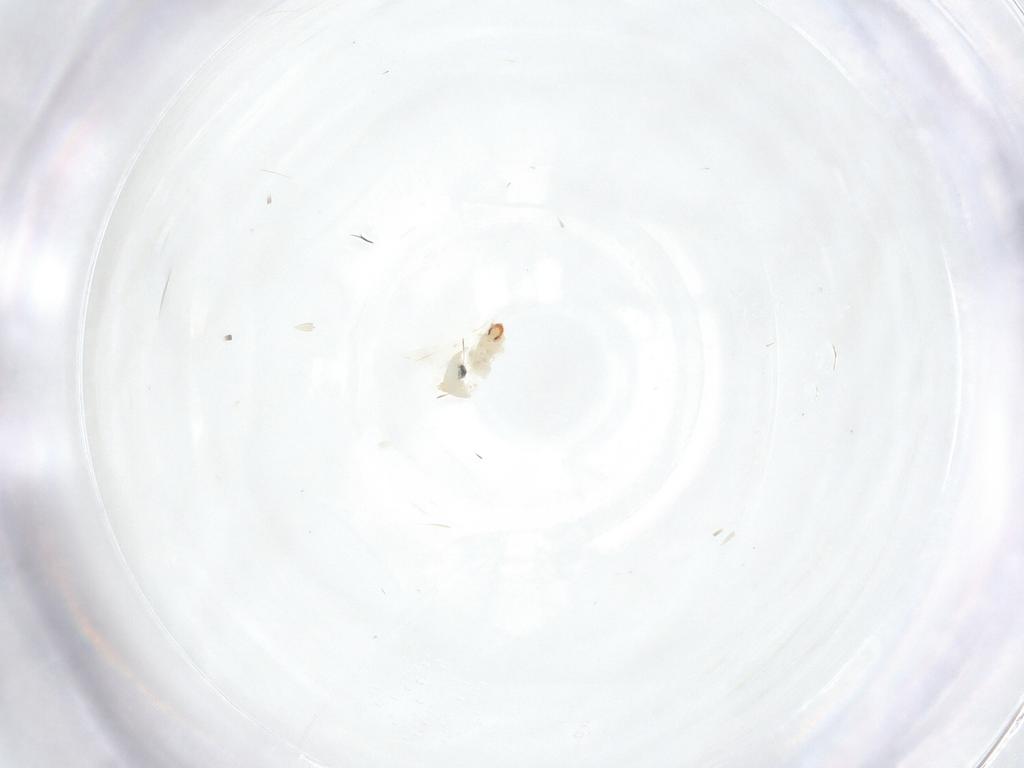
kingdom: Animalia
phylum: Arthropoda
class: Insecta
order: Diptera
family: Cecidomyiidae
